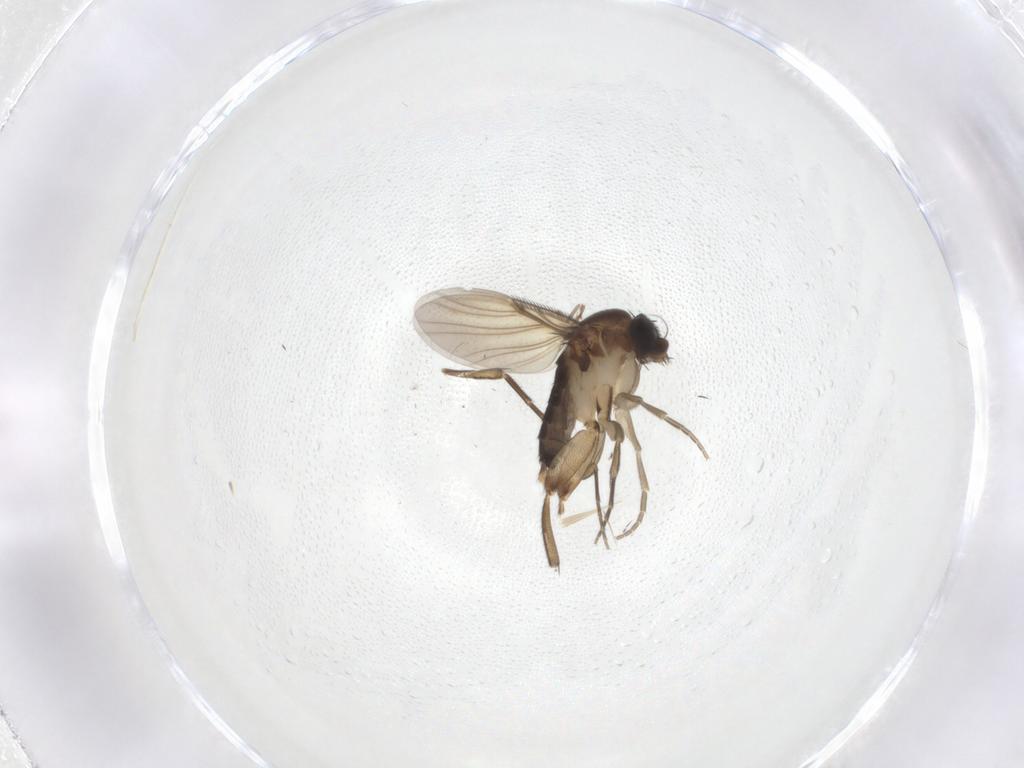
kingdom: Animalia
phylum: Arthropoda
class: Insecta
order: Diptera
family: Phoridae
